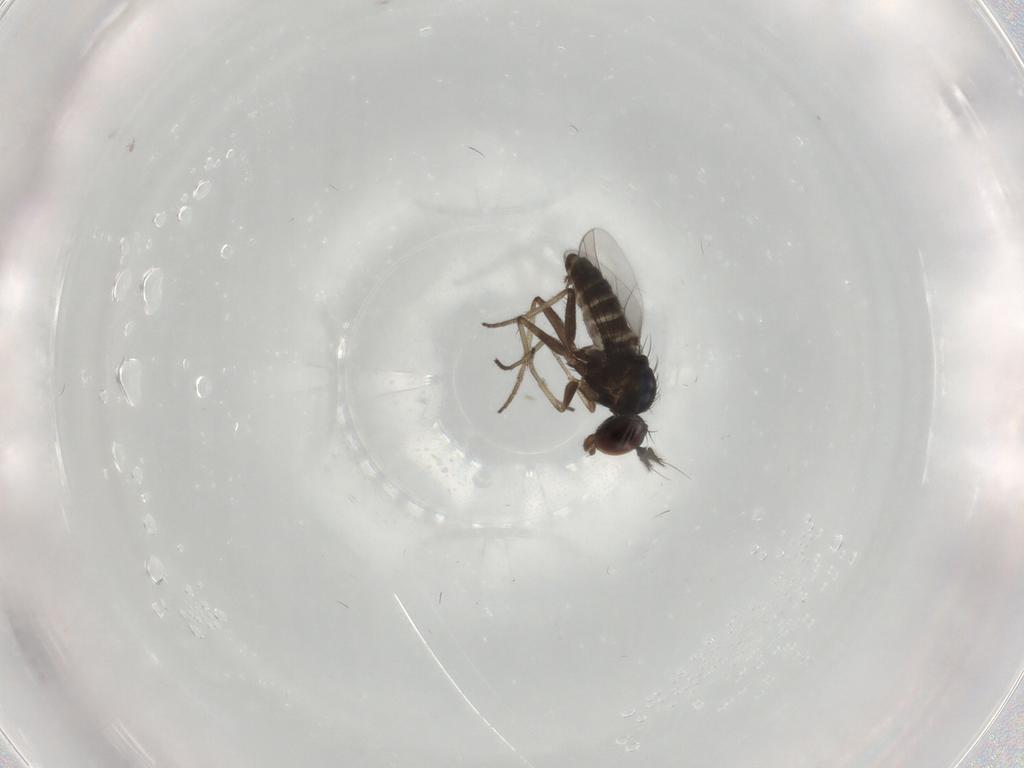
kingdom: Animalia
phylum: Arthropoda
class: Insecta
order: Diptera
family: Dolichopodidae
